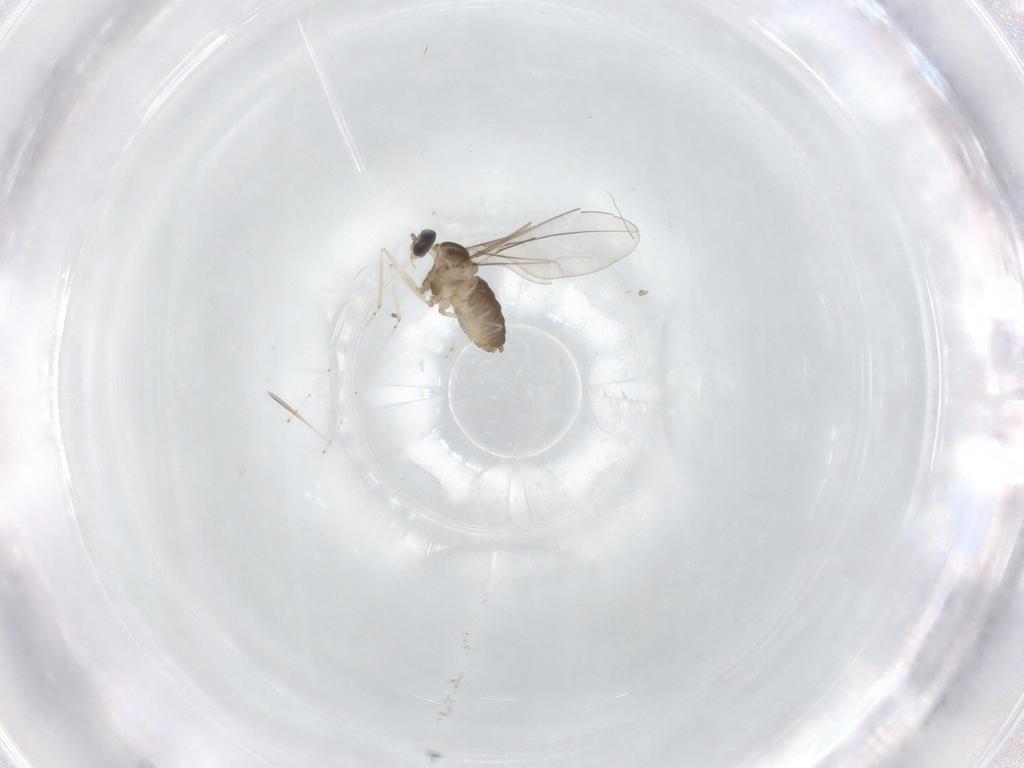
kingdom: Animalia
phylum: Arthropoda
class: Insecta
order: Diptera
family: Cecidomyiidae
